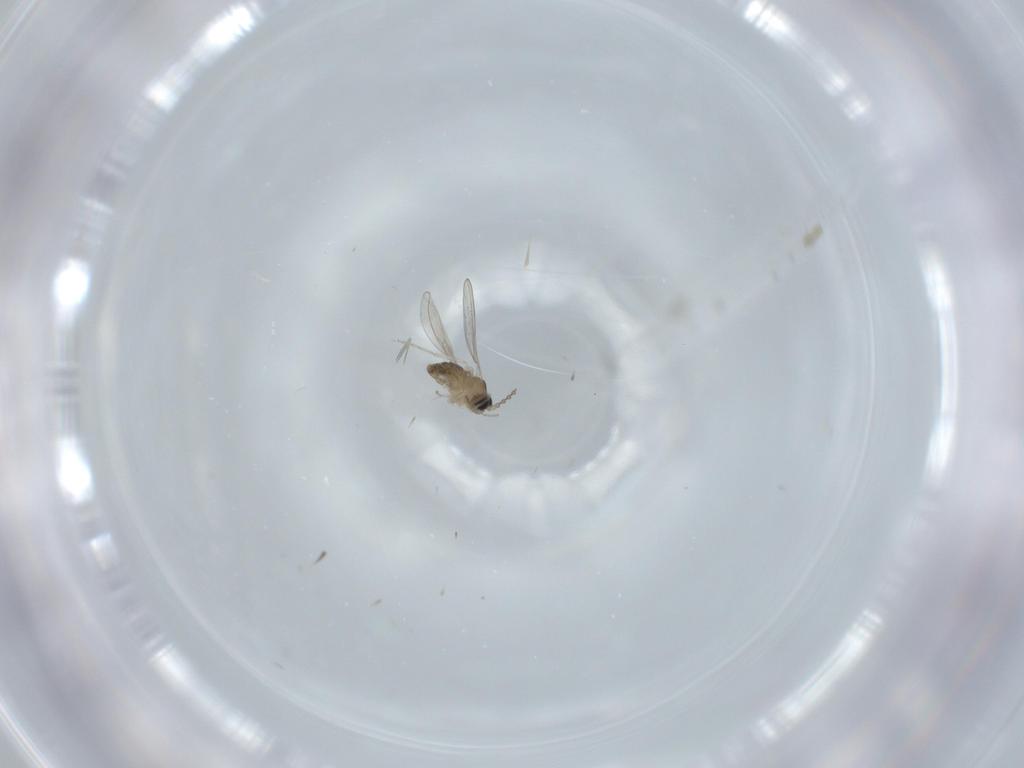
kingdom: Animalia
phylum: Arthropoda
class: Insecta
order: Diptera
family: Cecidomyiidae
